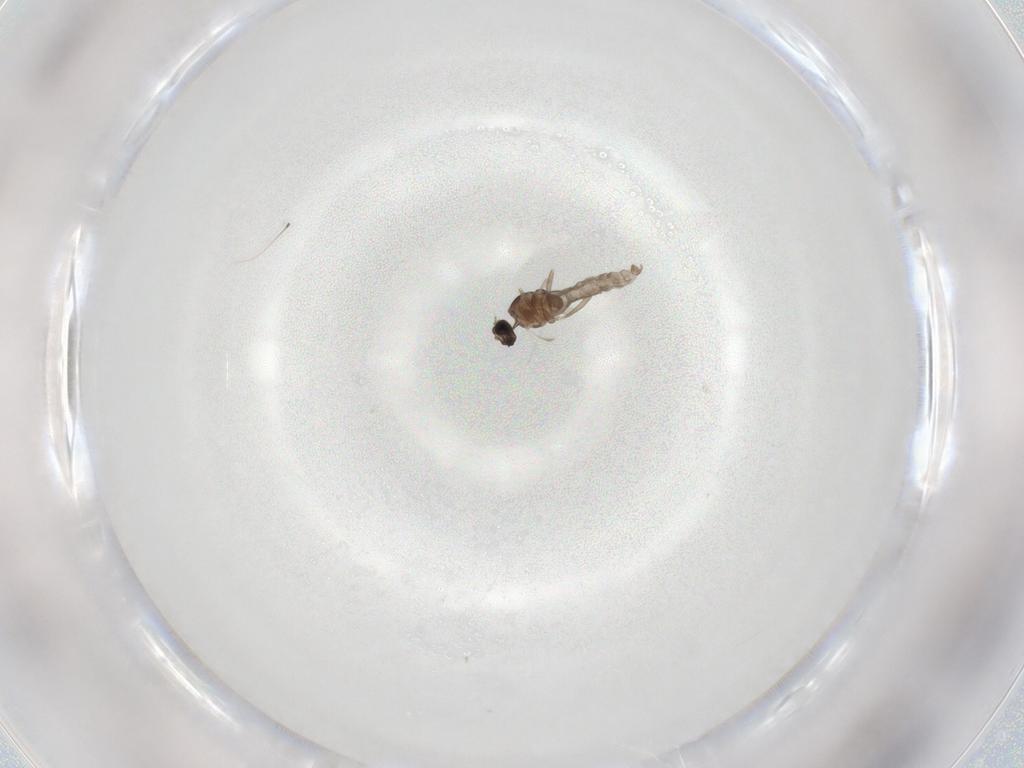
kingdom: Animalia
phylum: Arthropoda
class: Insecta
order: Diptera
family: Cecidomyiidae
